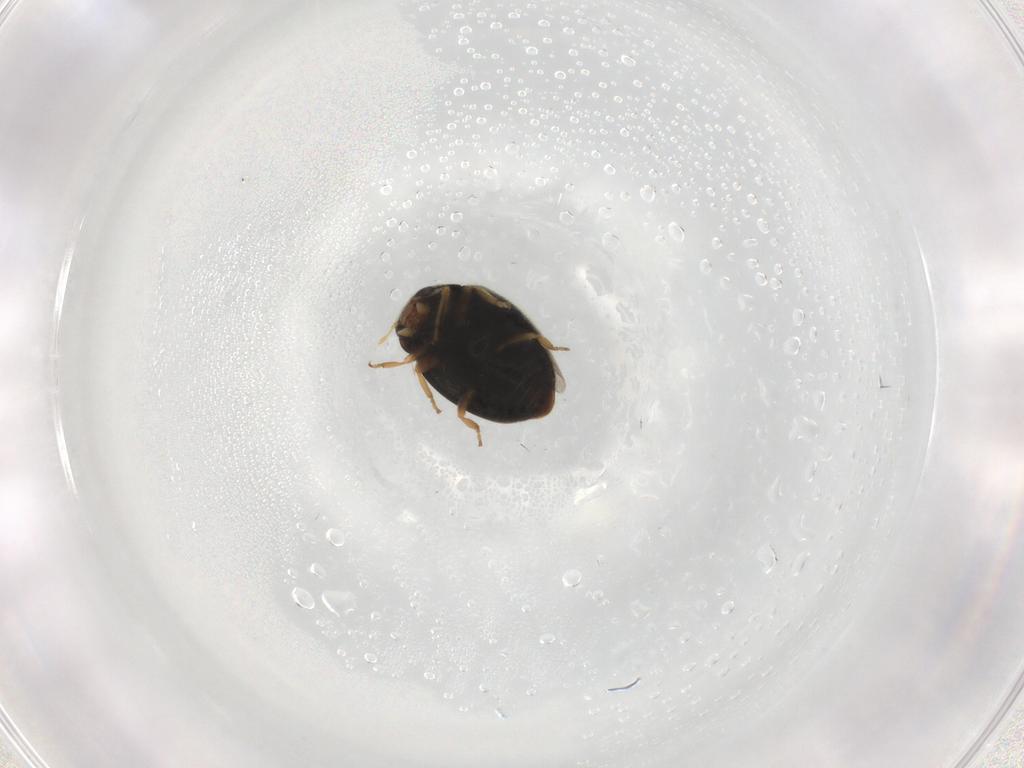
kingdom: Animalia
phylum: Arthropoda
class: Insecta
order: Coleoptera
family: Coccinellidae
